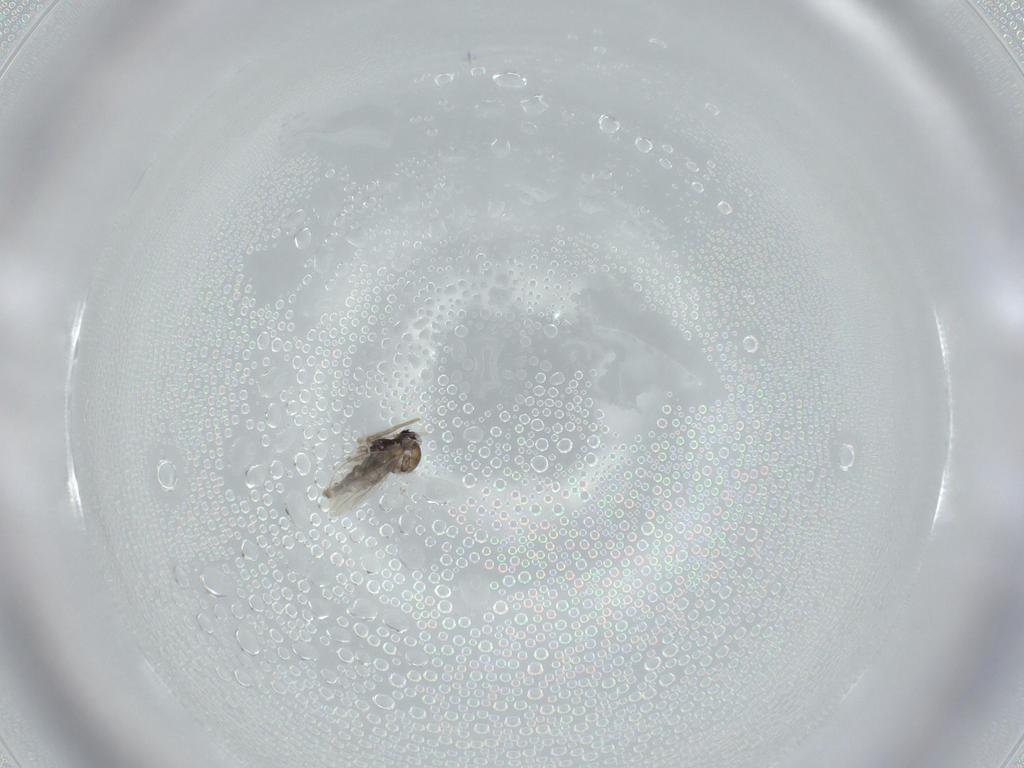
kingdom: Animalia
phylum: Arthropoda
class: Insecta
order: Diptera
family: Cecidomyiidae
